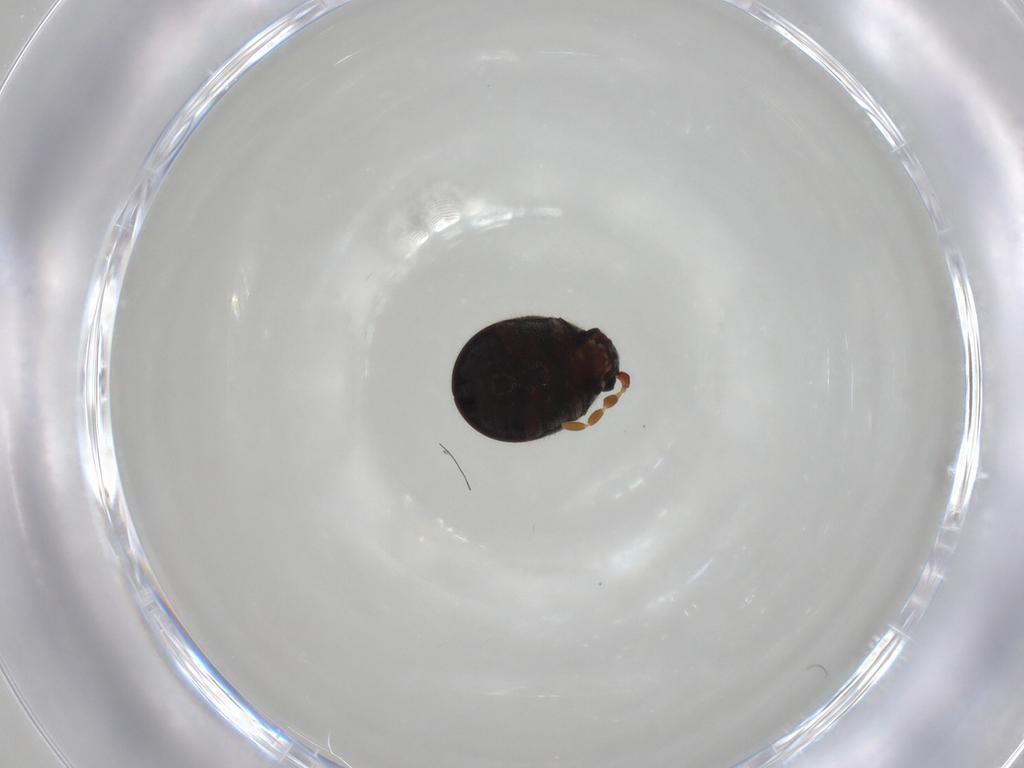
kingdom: Animalia
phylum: Arthropoda
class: Insecta
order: Coleoptera
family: Ptinidae
